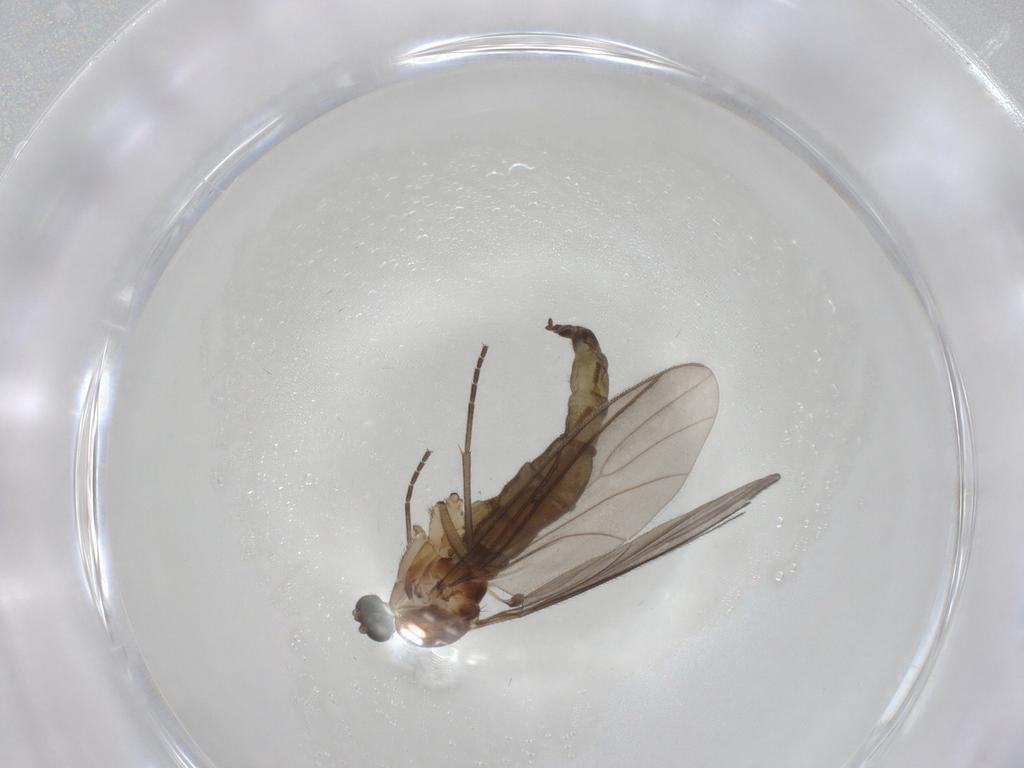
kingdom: Animalia
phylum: Arthropoda
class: Insecta
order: Diptera
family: Sciaridae
